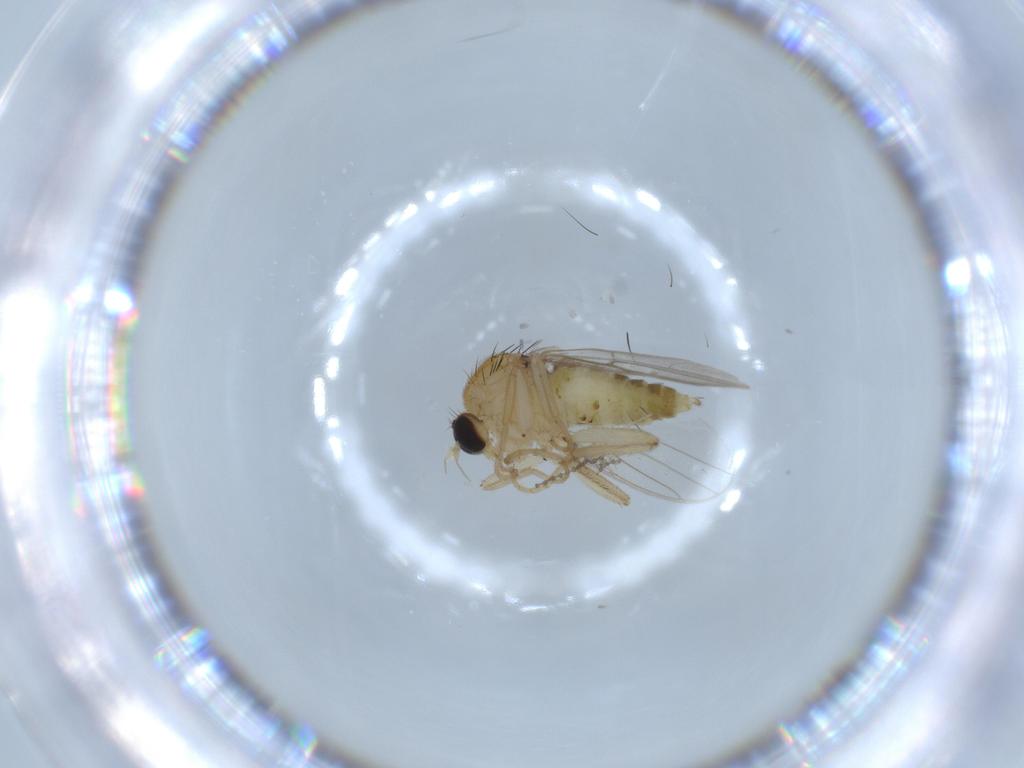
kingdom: Animalia
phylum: Arthropoda
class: Insecta
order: Diptera
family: Hybotidae
